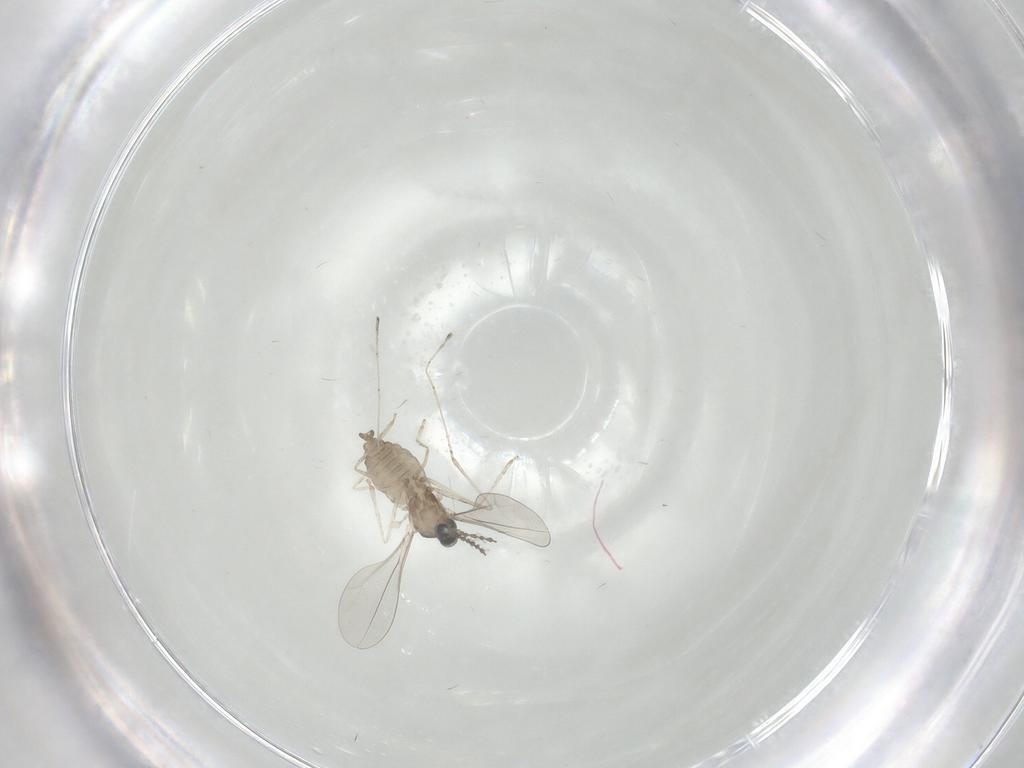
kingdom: Animalia
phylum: Arthropoda
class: Insecta
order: Diptera
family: Cecidomyiidae
